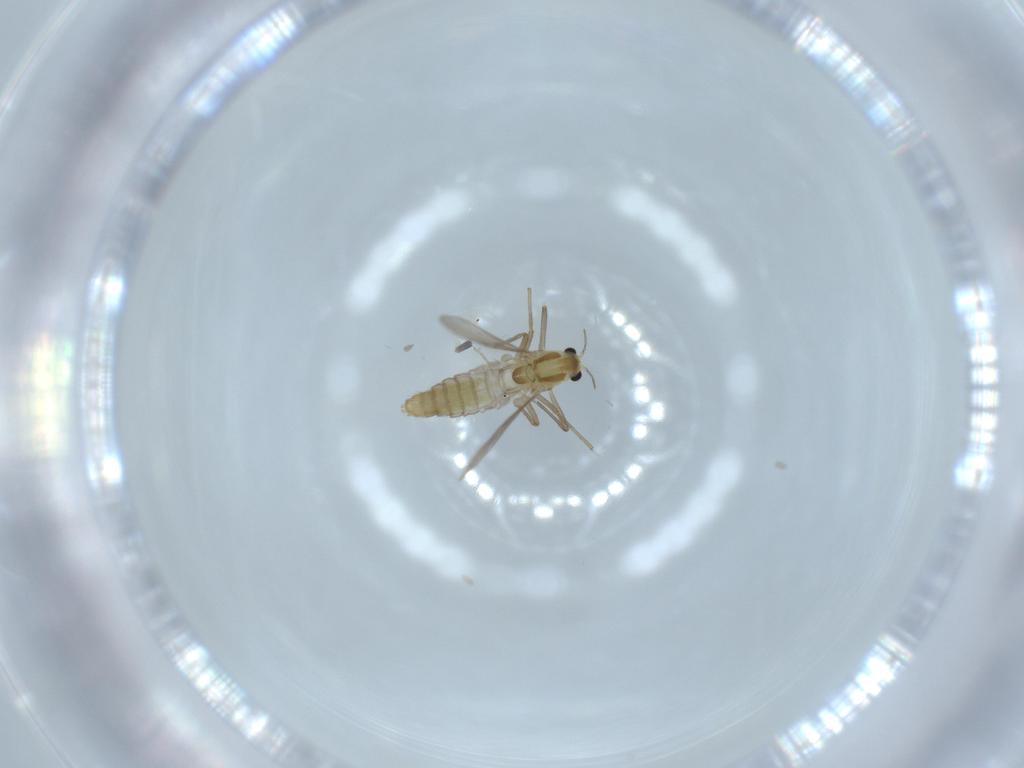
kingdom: Animalia
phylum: Arthropoda
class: Insecta
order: Diptera
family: Chironomidae
